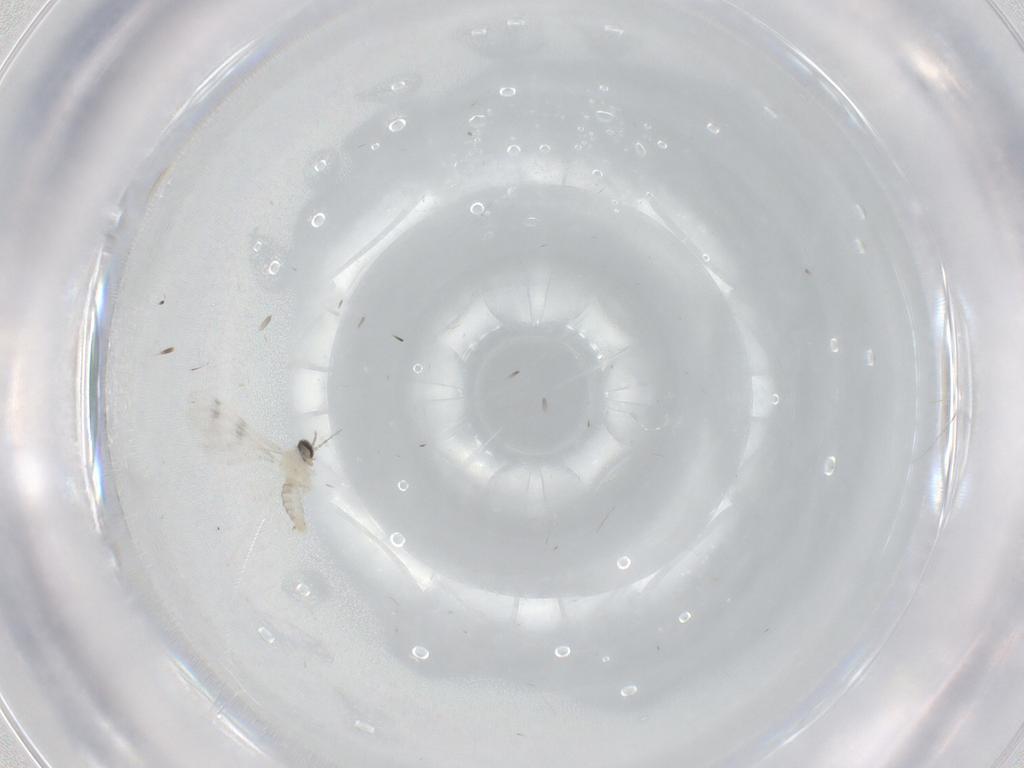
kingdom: Animalia
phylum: Arthropoda
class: Insecta
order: Diptera
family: Cecidomyiidae
